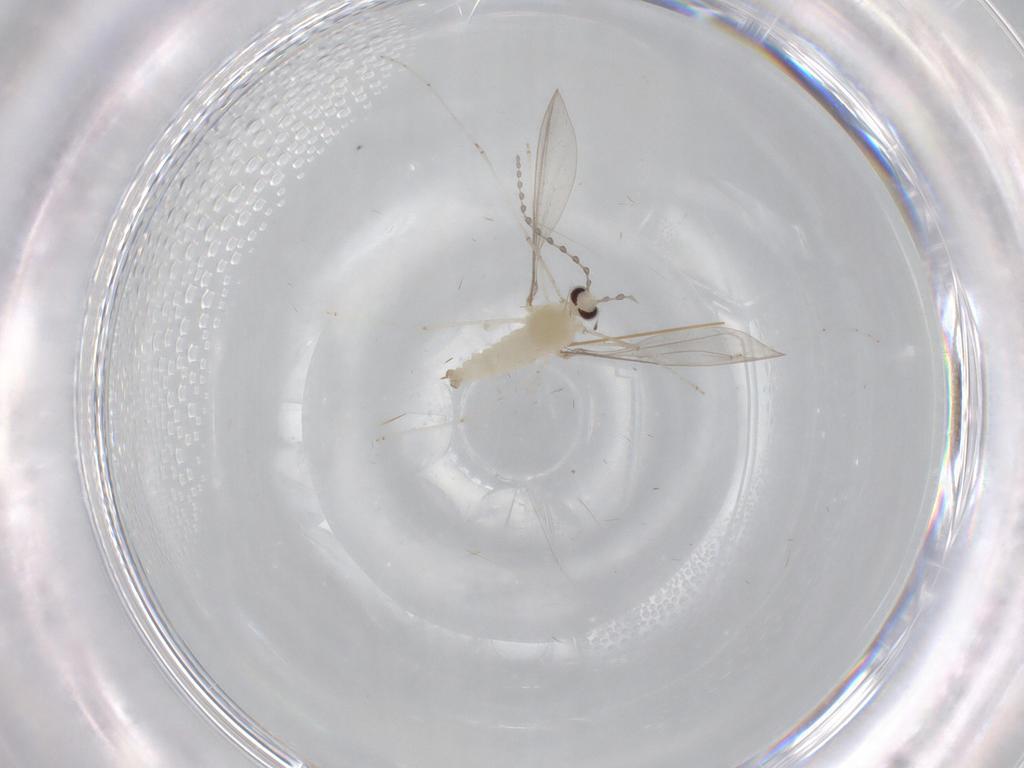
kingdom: Animalia
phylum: Arthropoda
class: Insecta
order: Diptera
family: Cecidomyiidae
